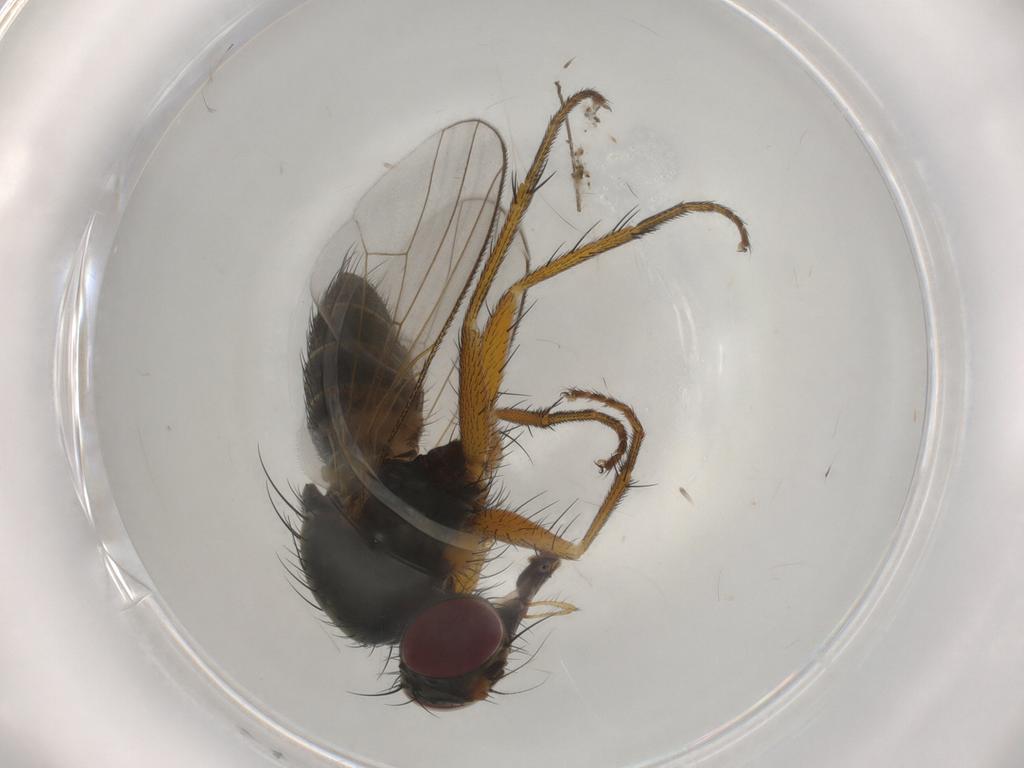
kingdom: Animalia
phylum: Arthropoda
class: Insecta
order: Diptera
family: Muscidae
